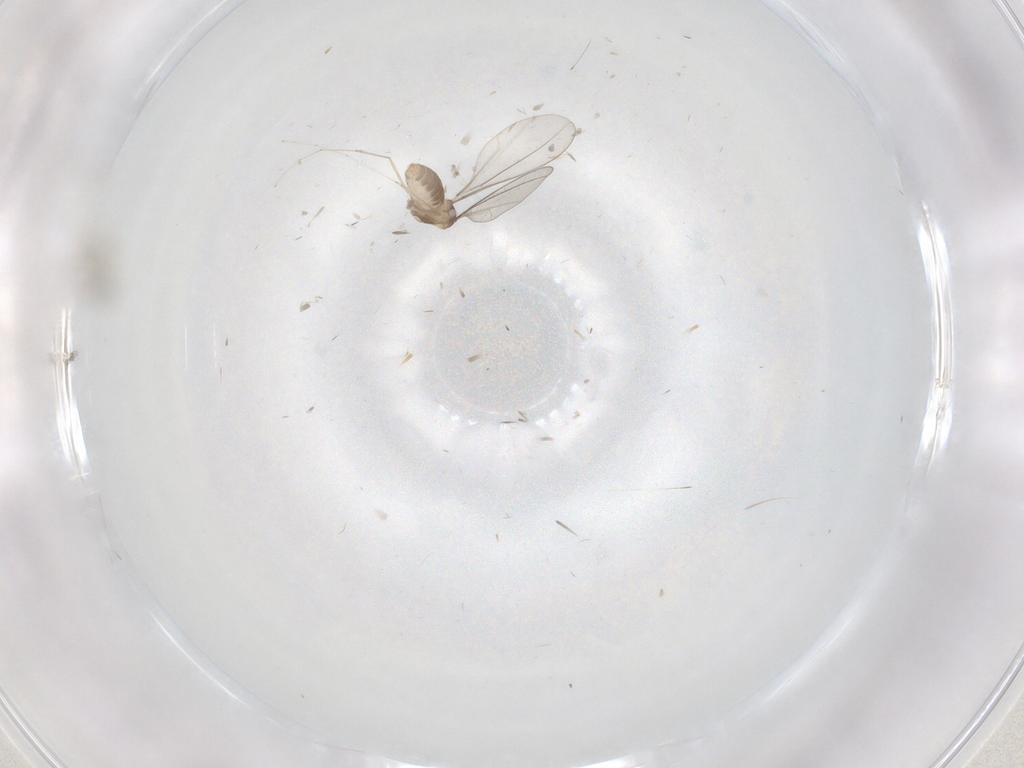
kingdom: Animalia
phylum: Arthropoda
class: Insecta
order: Diptera
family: Cecidomyiidae
